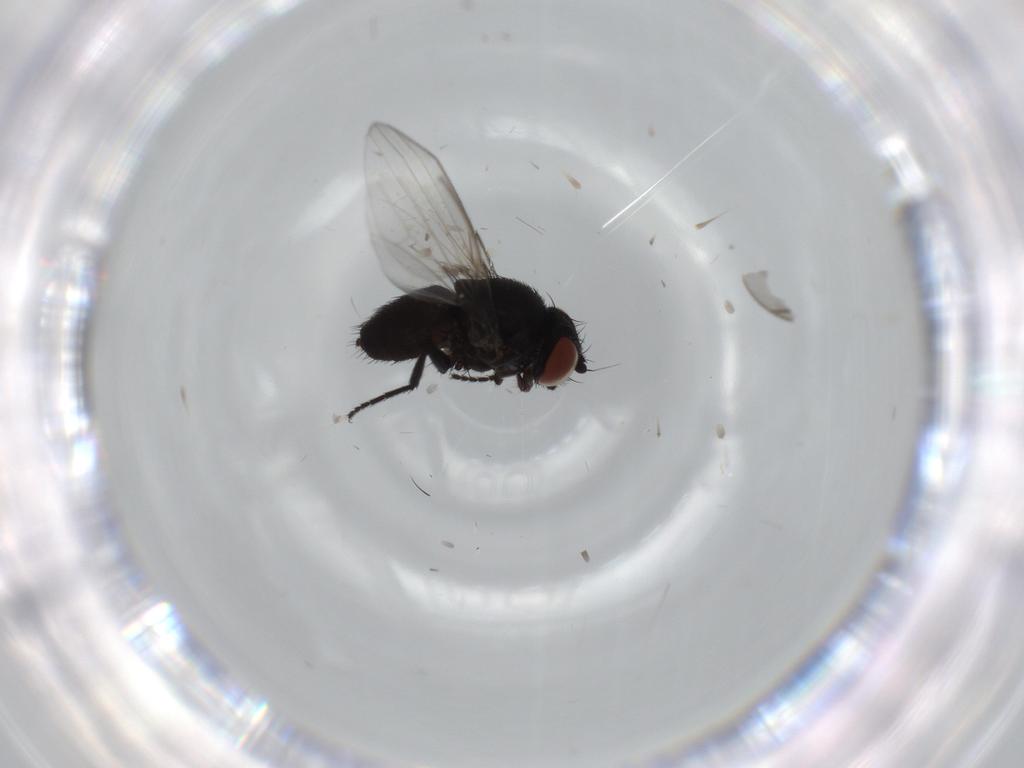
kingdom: Animalia
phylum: Arthropoda
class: Insecta
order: Diptera
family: Milichiidae
